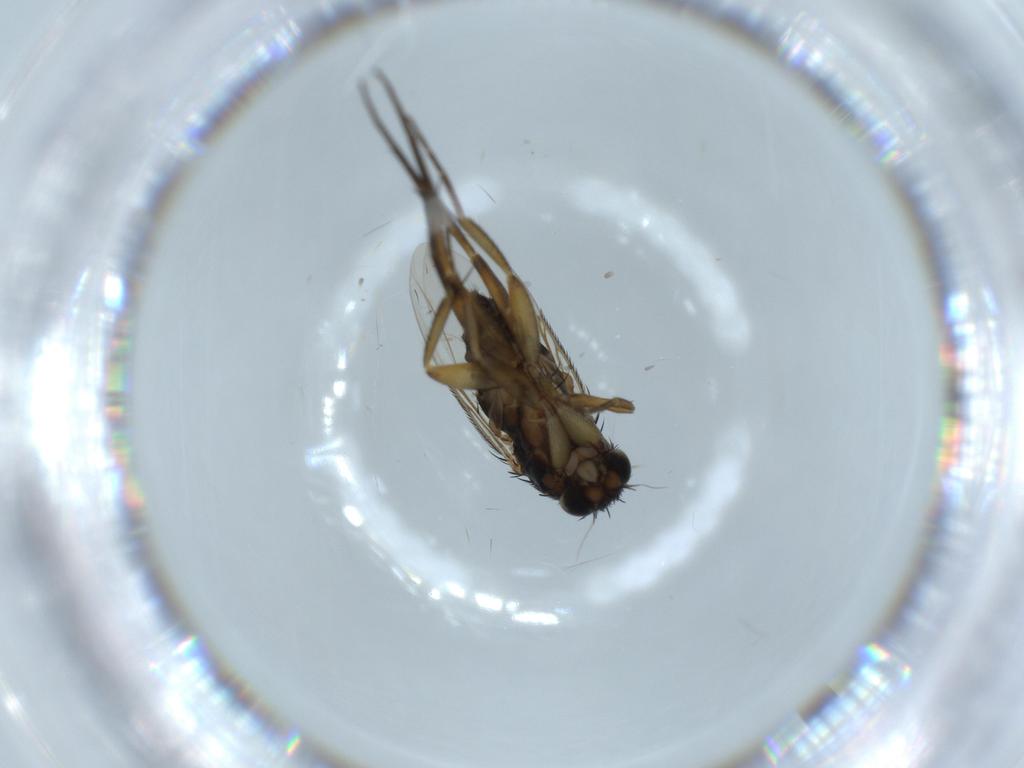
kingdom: Animalia
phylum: Arthropoda
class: Insecta
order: Diptera
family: Phoridae
